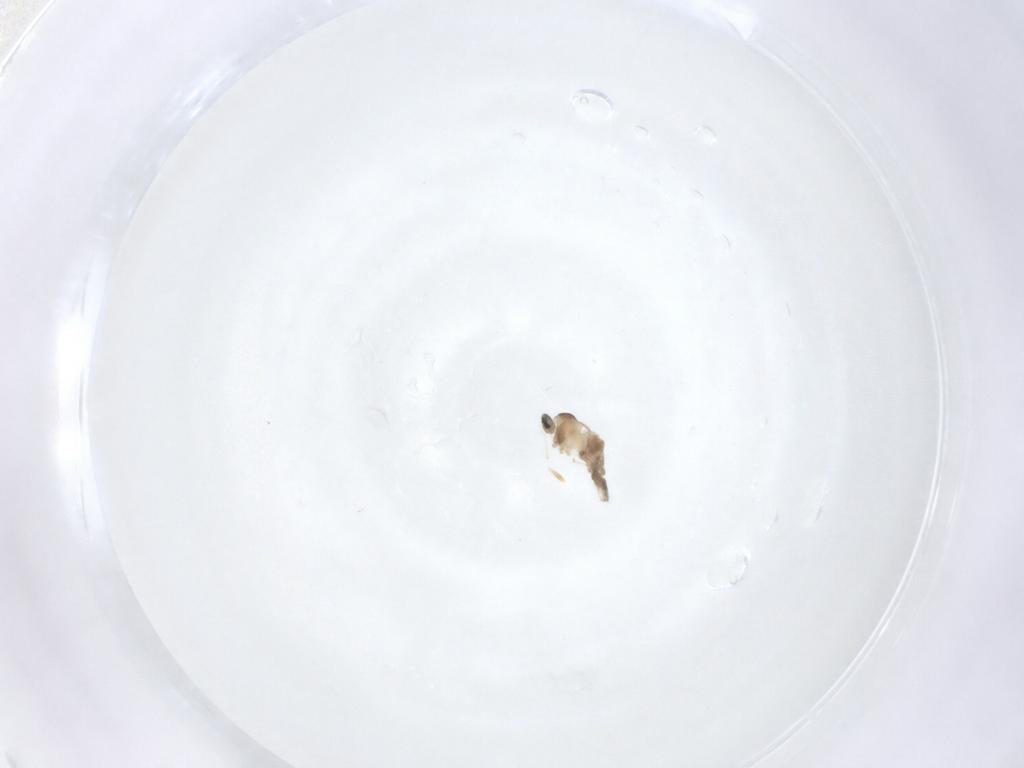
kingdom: Animalia
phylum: Arthropoda
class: Insecta
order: Diptera
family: Cecidomyiidae
